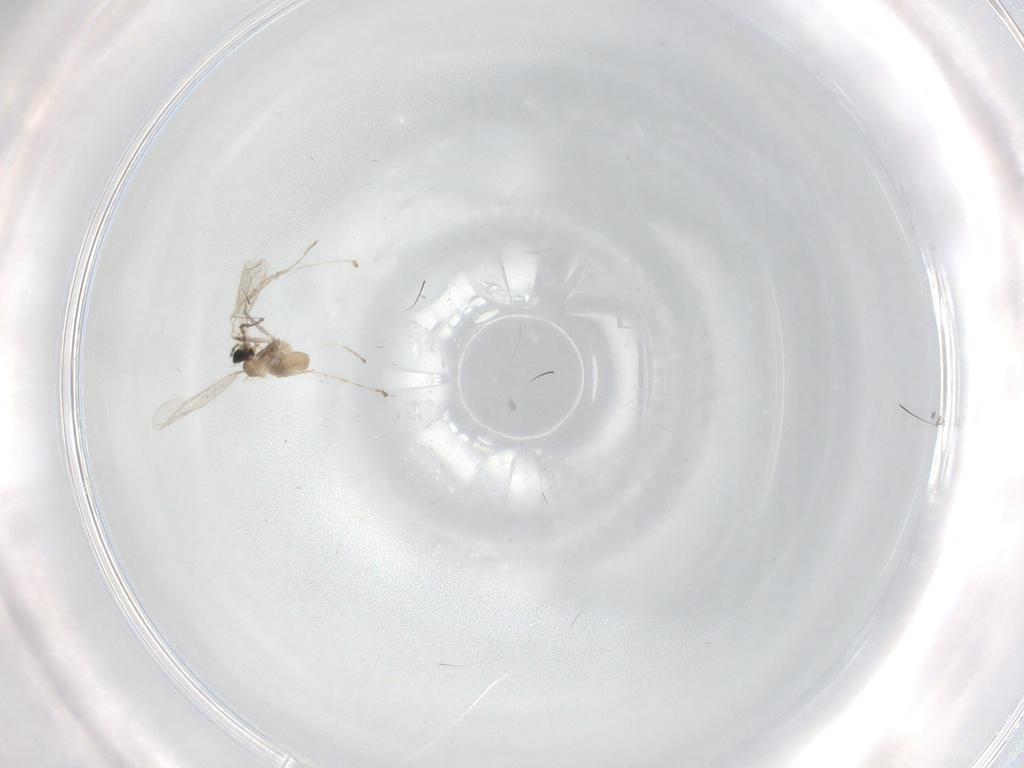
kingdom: Animalia
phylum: Arthropoda
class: Insecta
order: Diptera
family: Cecidomyiidae
